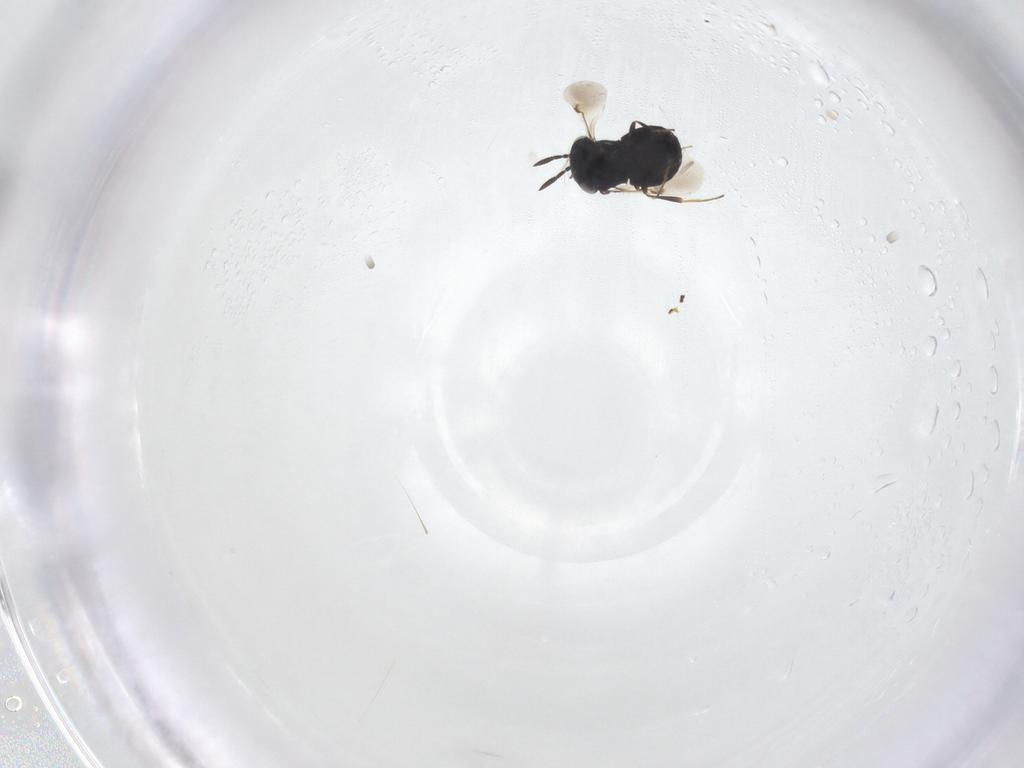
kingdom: Animalia
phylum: Arthropoda
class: Insecta
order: Hymenoptera
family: Scelionidae
